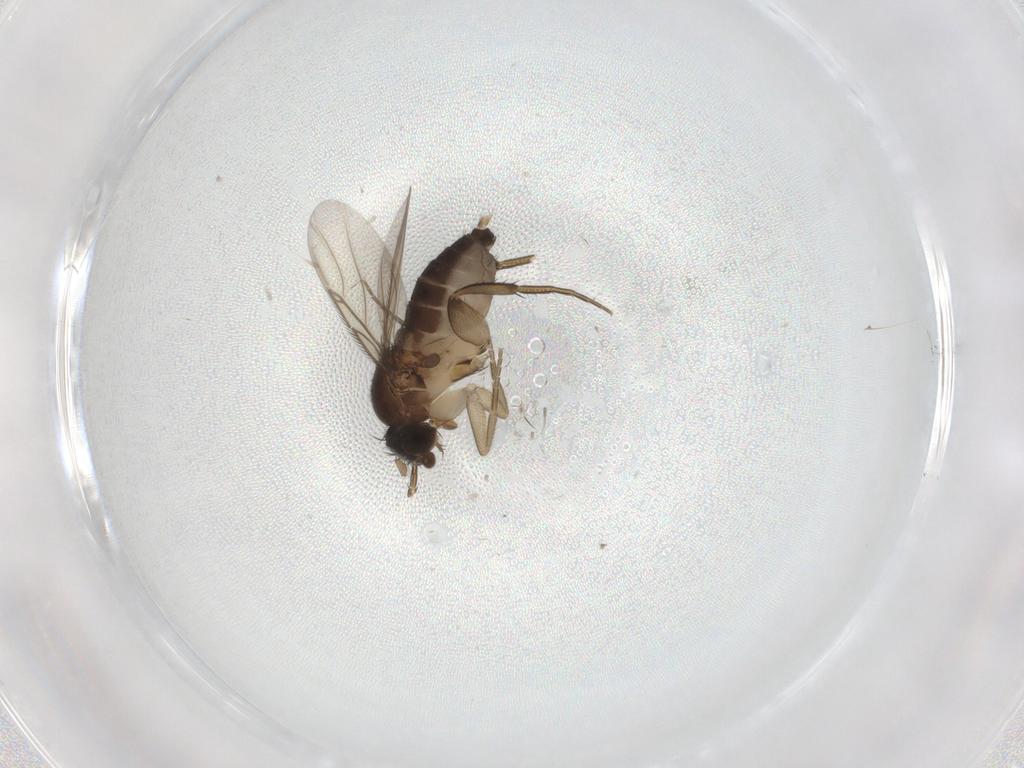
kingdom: Animalia
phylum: Arthropoda
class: Insecta
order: Diptera
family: Phoridae
